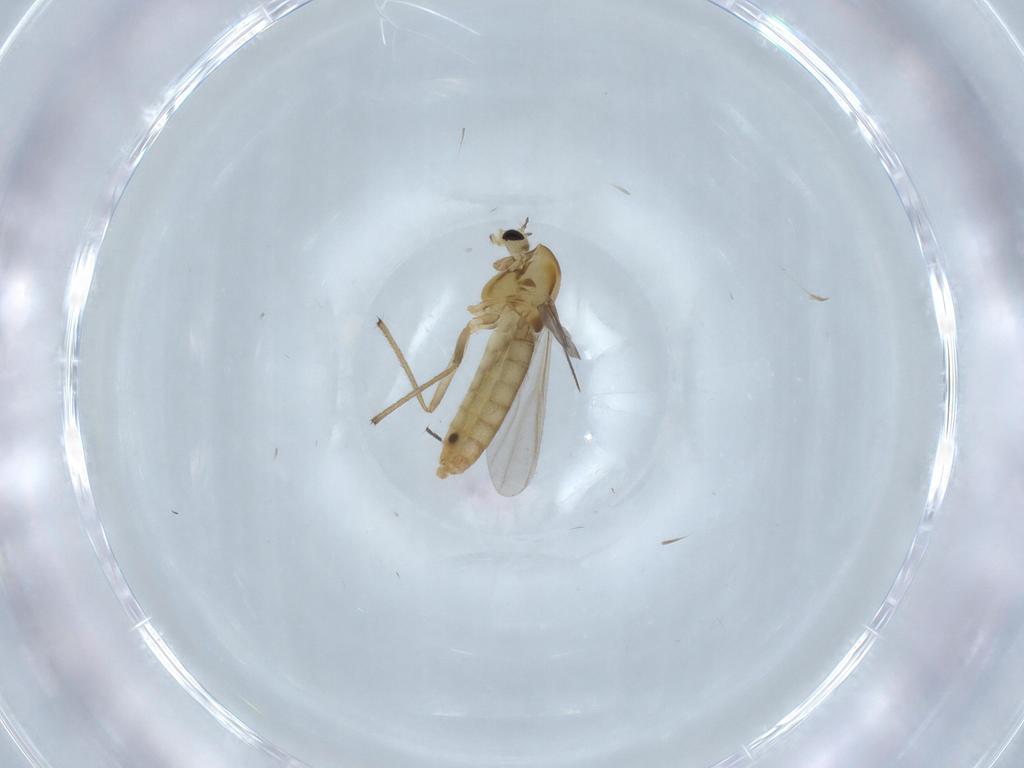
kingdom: Animalia
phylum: Arthropoda
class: Insecta
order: Diptera
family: Chironomidae
